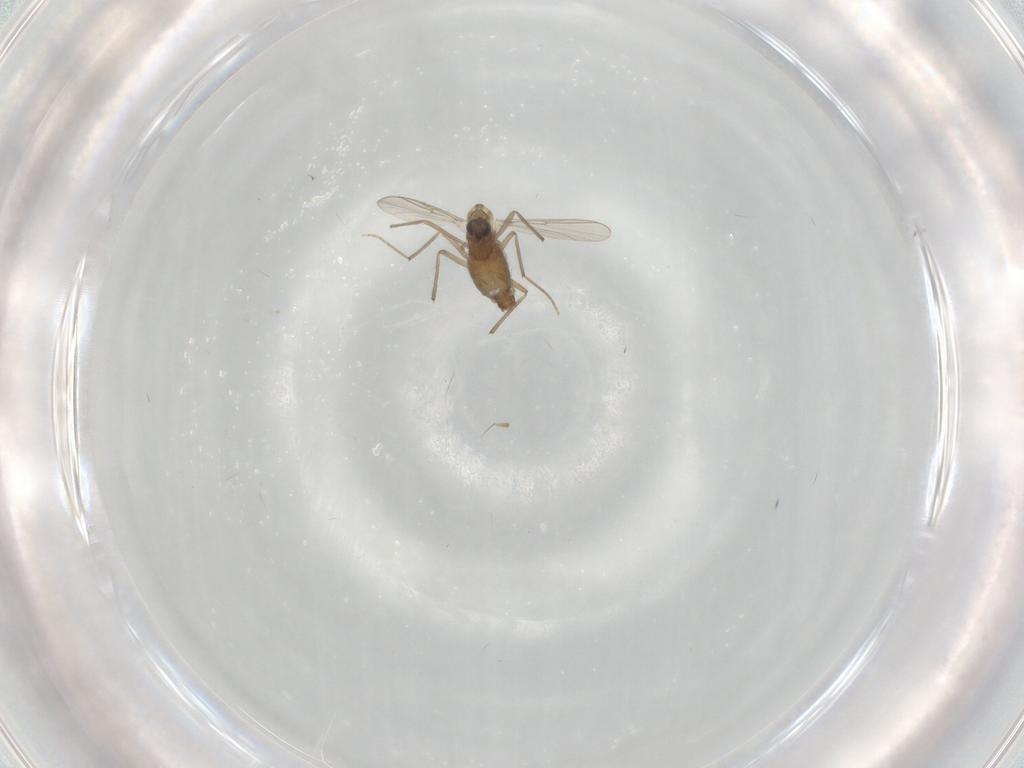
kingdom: Animalia
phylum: Arthropoda
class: Insecta
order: Diptera
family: Chironomidae
